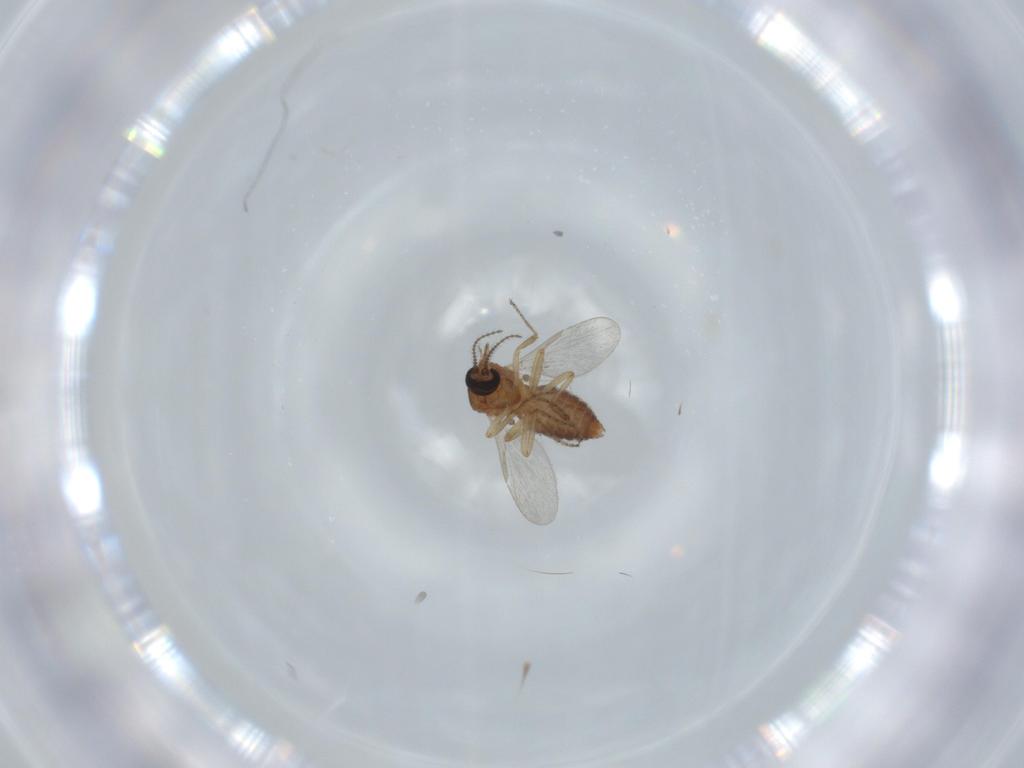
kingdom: Animalia
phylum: Arthropoda
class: Insecta
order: Diptera
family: Ceratopogonidae
